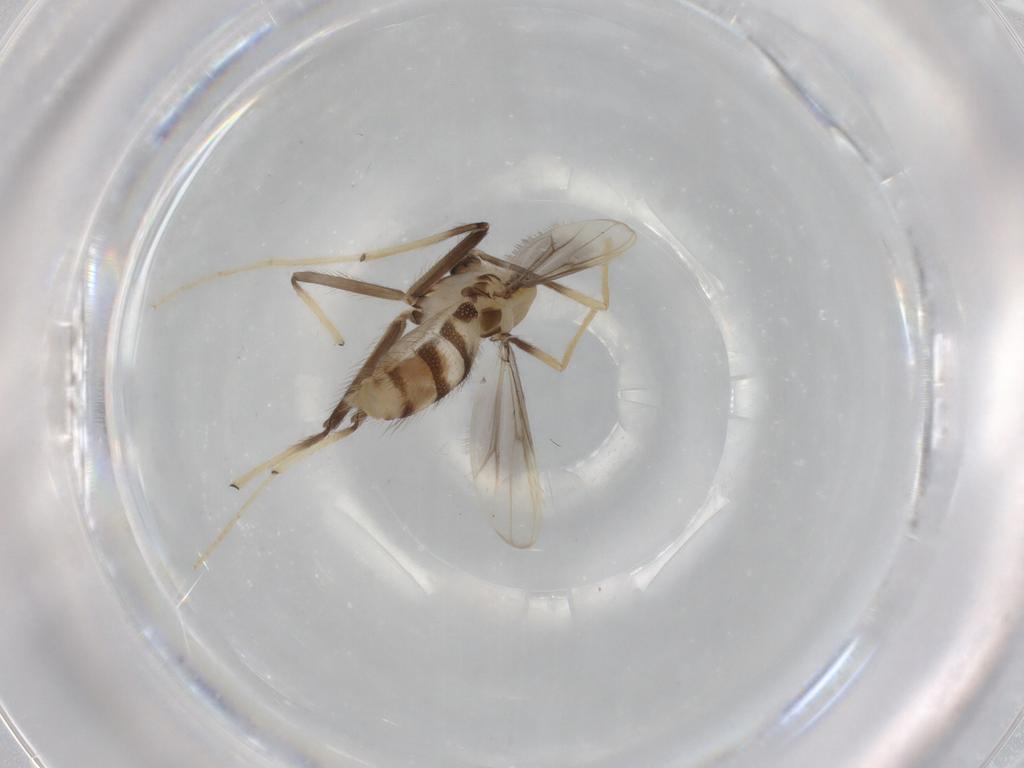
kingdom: Animalia
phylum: Arthropoda
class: Insecta
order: Diptera
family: Chironomidae
